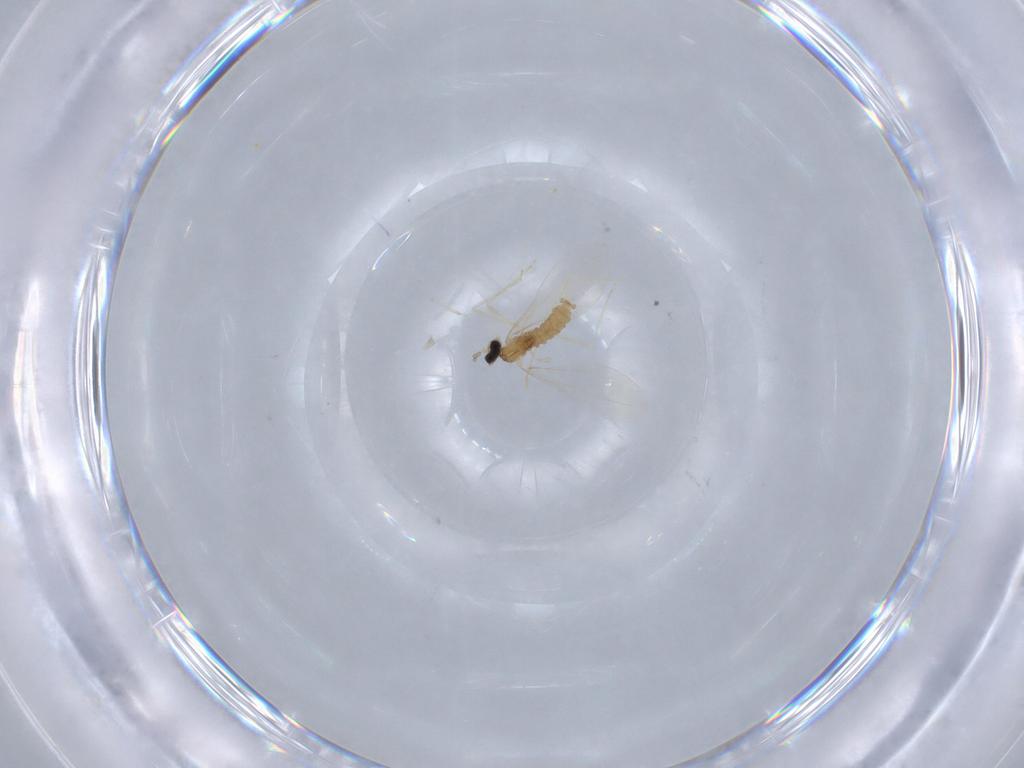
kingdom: Animalia
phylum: Arthropoda
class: Insecta
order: Diptera
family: Cecidomyiidae
